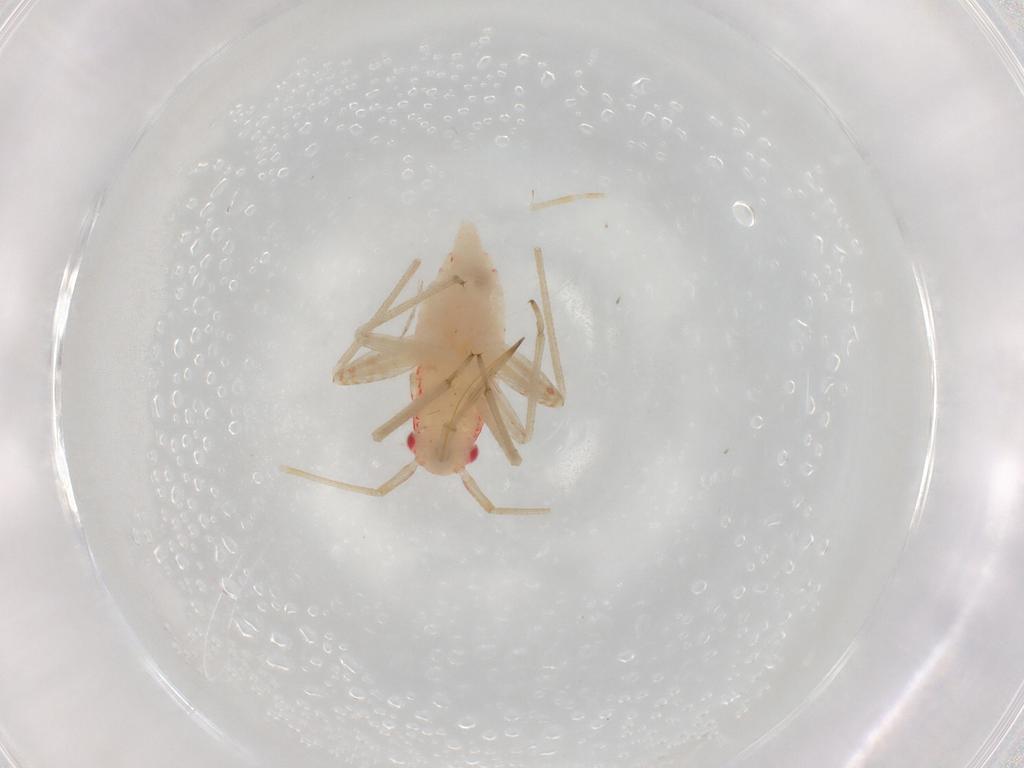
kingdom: Animalia
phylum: Arthropoda
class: Insecta
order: Hemiptera
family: Miridae
